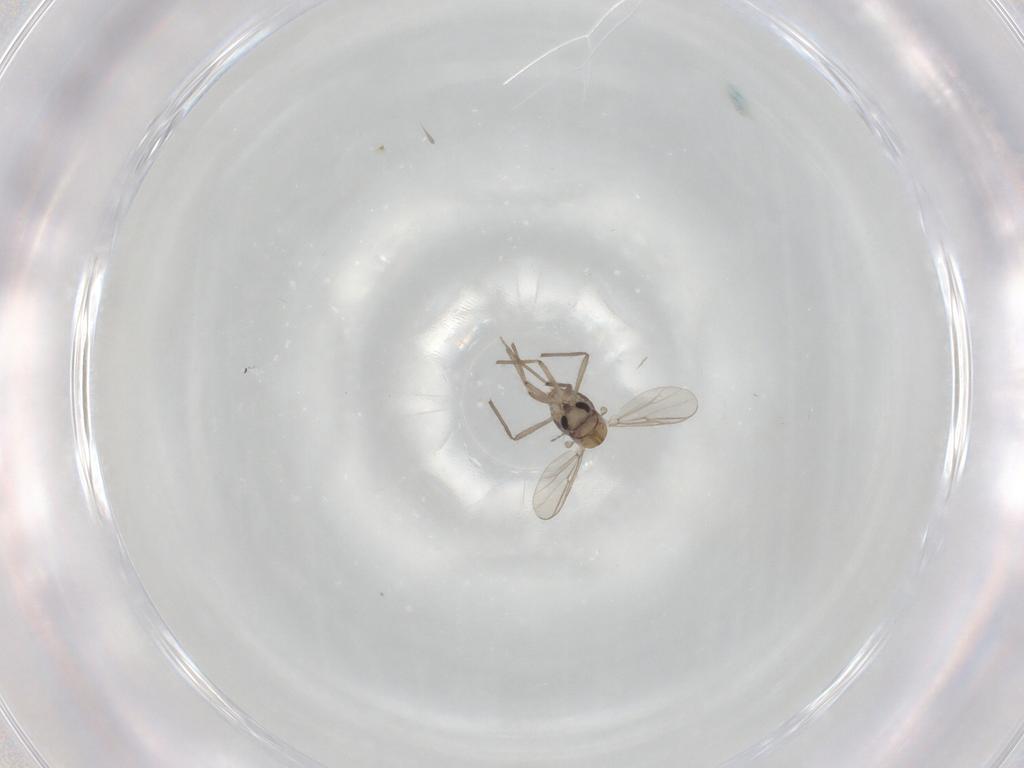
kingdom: Animalia
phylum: Arthropoda
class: Insecta
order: Diptera
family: Chironomidae
